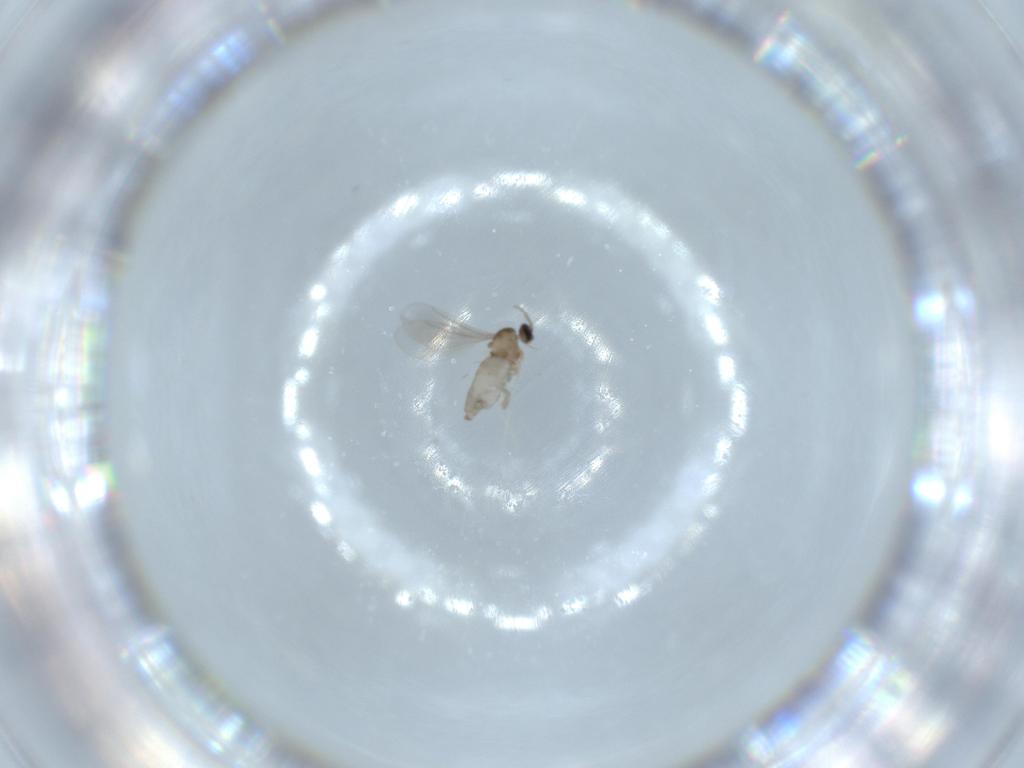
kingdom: Animalia
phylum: Arthropoda
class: Insecta
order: Diptera
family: Cecidomyiidae
